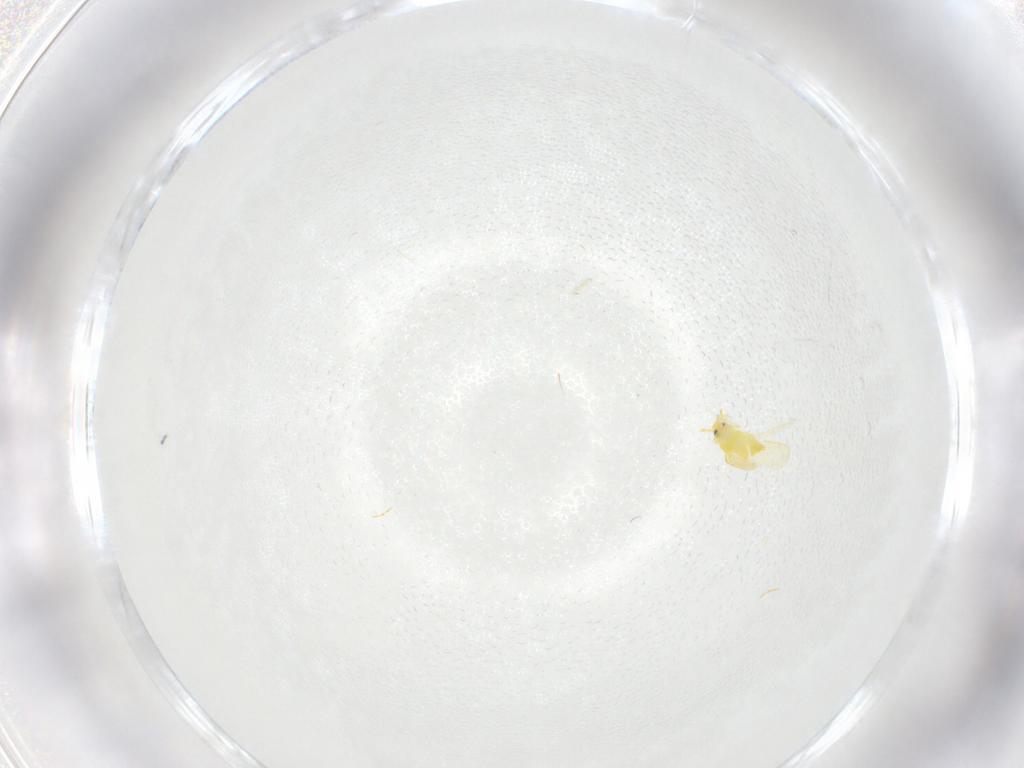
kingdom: Animalia
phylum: Arthropoda
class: Insecta
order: Hemiptera
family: Aleyrodidae
